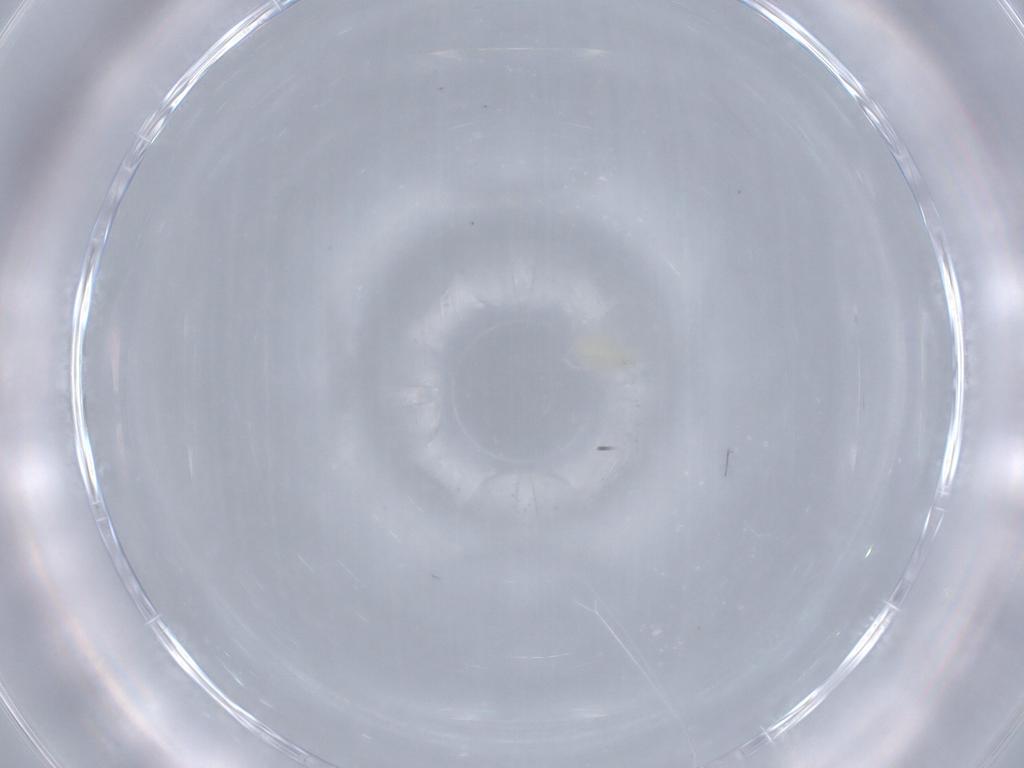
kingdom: Animalia
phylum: Arthropoda
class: Arachnida
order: Trombidiformes
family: Erythraeidae
